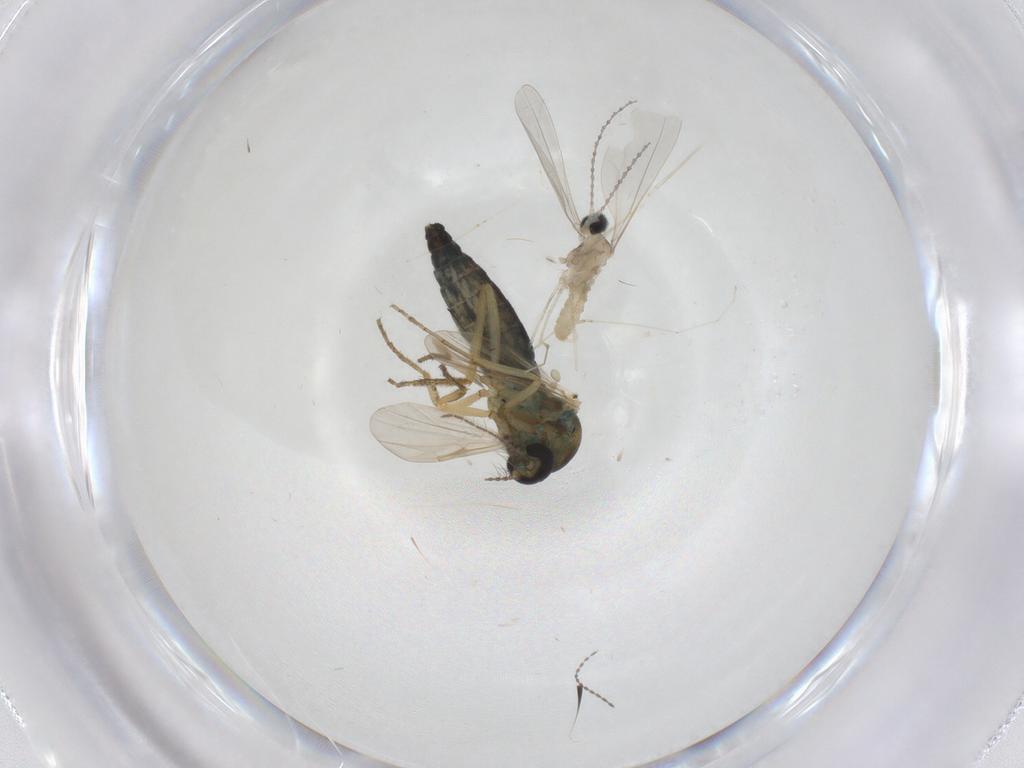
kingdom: Animalia
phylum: Arthropoda
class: Insecta
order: Diptera
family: Cecidomyiidae
